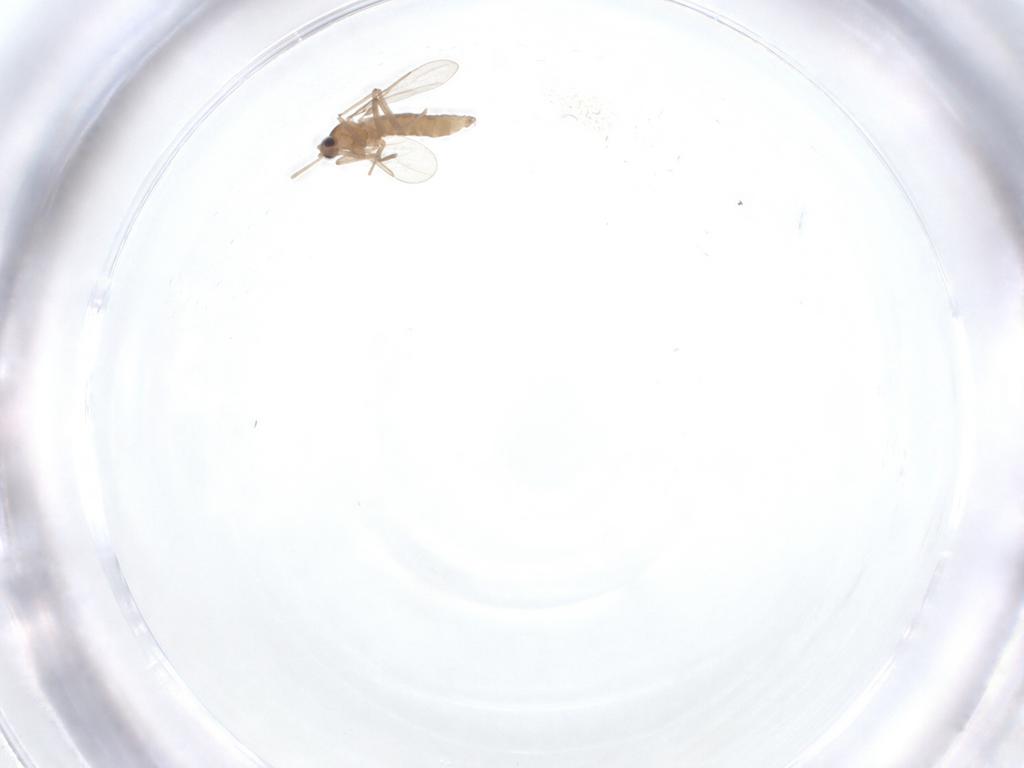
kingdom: Animalia
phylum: Arthropoda
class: Insecta
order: Diptera
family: Cecidomyiidae
